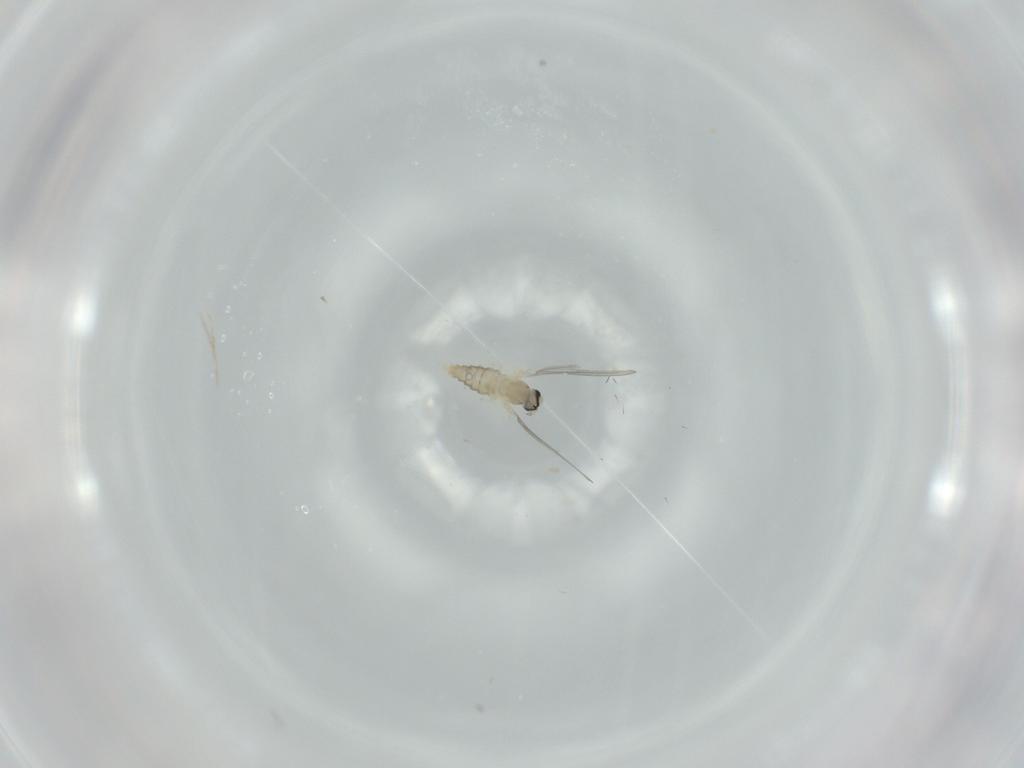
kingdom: Animalia
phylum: Arthropoda
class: Insecta
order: Diptera
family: Cecidomyiidae
